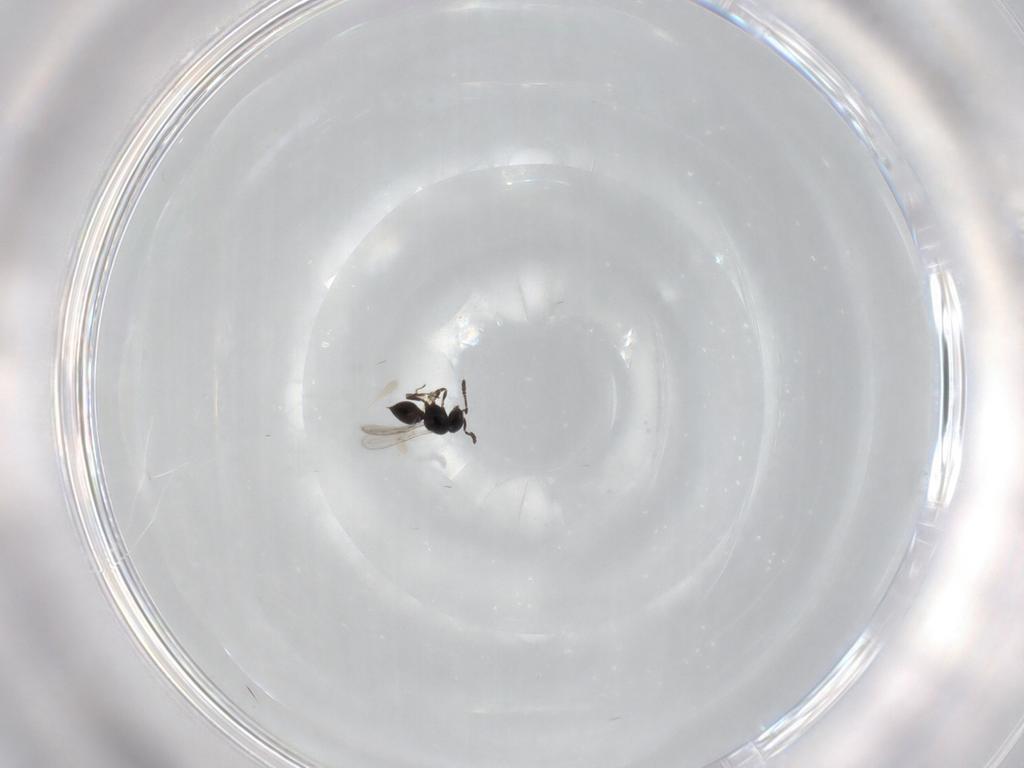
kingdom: Animalia
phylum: Arthropoda
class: Insecta
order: Hymenoptera
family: Scelionidae
